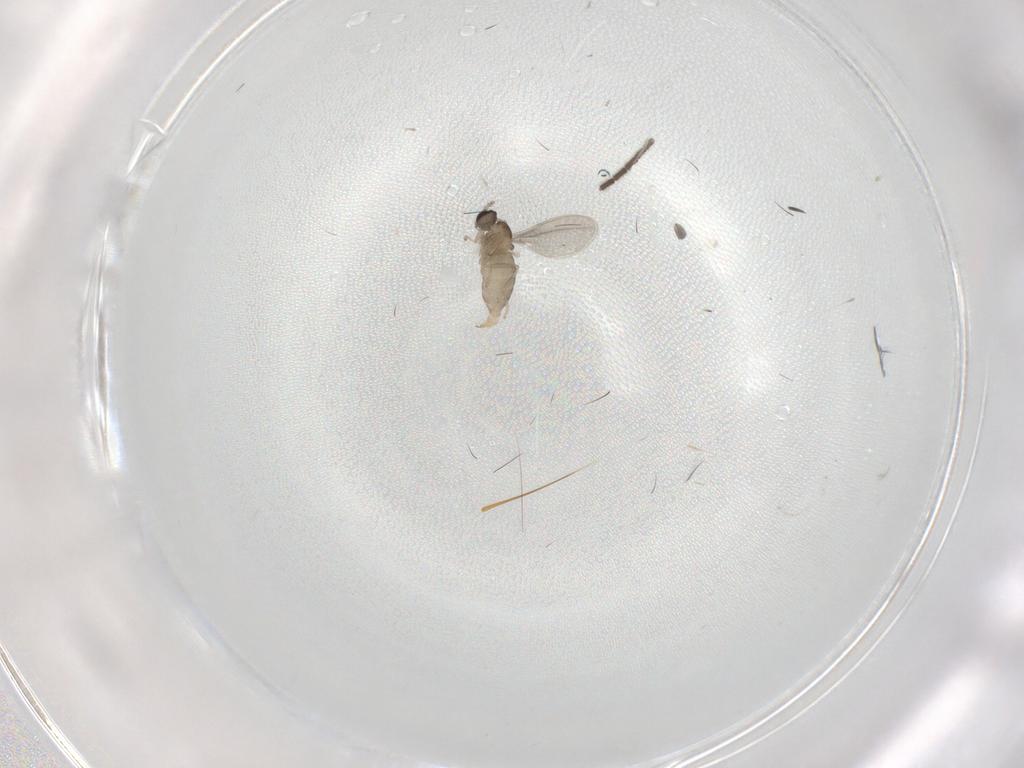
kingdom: Animalia
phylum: Arthropoda
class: Insecta
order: Diptera
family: Sciaridae
